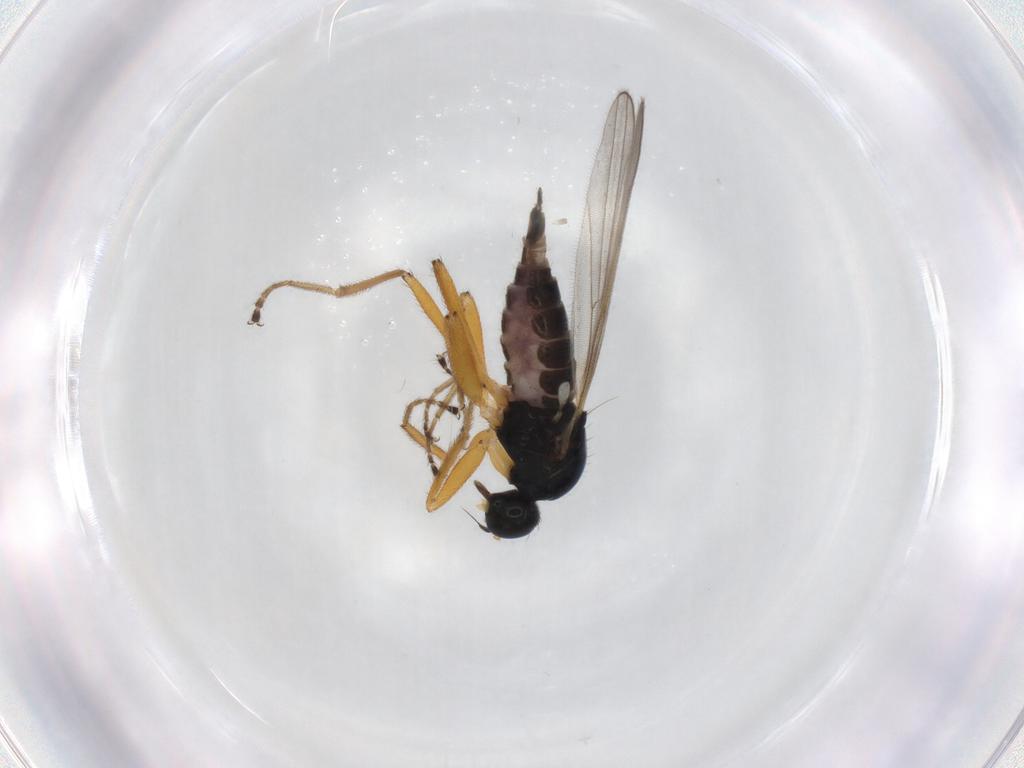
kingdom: Animalia
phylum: Arthropoda
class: Insecta
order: Diptera
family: Hybotidae
